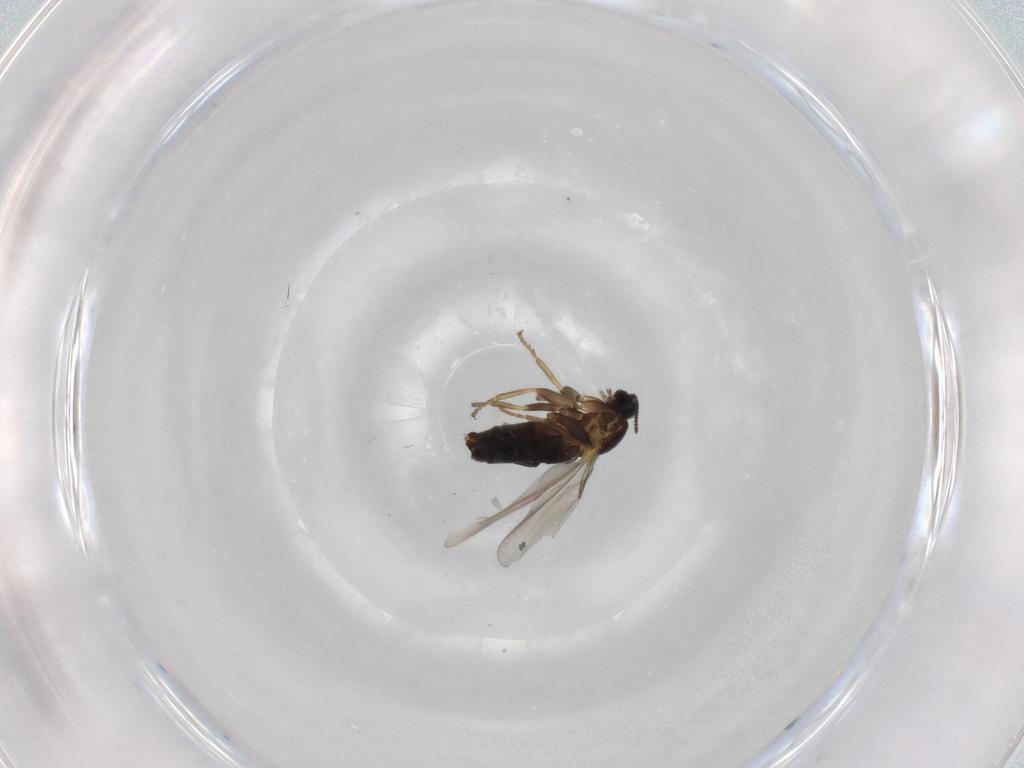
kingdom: Animalia
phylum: Arthropoda
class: Insecta
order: Diptera
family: Scatopsidae
